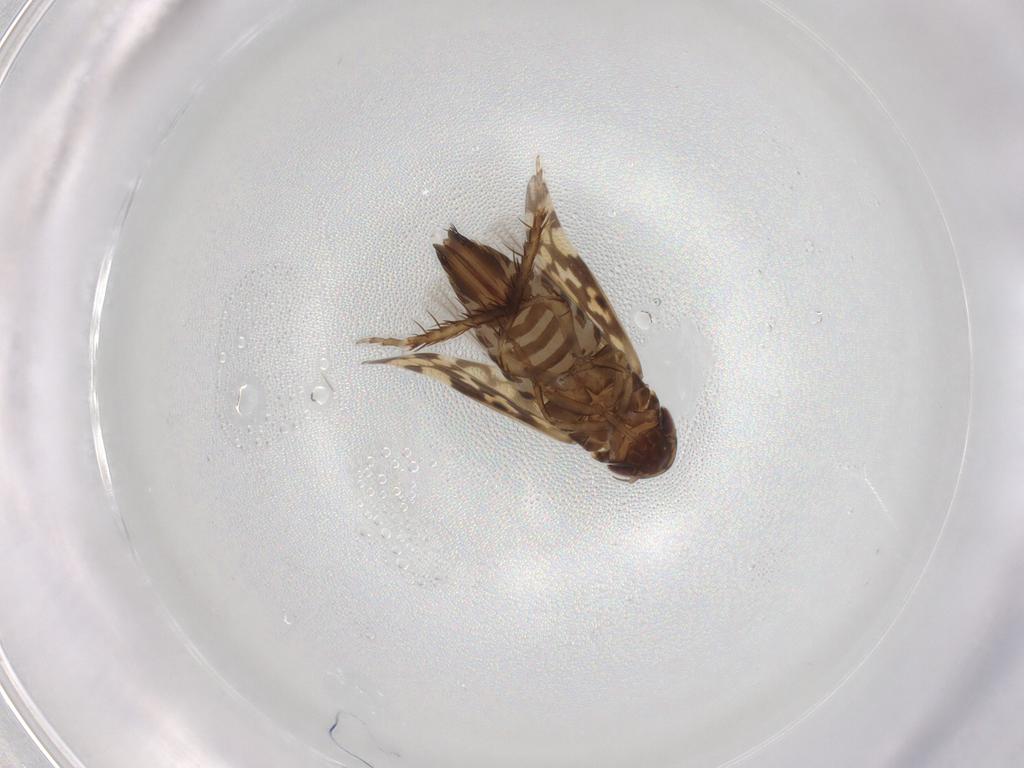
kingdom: Animalia
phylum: Arthropoda
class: Insecta
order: Hemiptera
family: Cicadellidae
